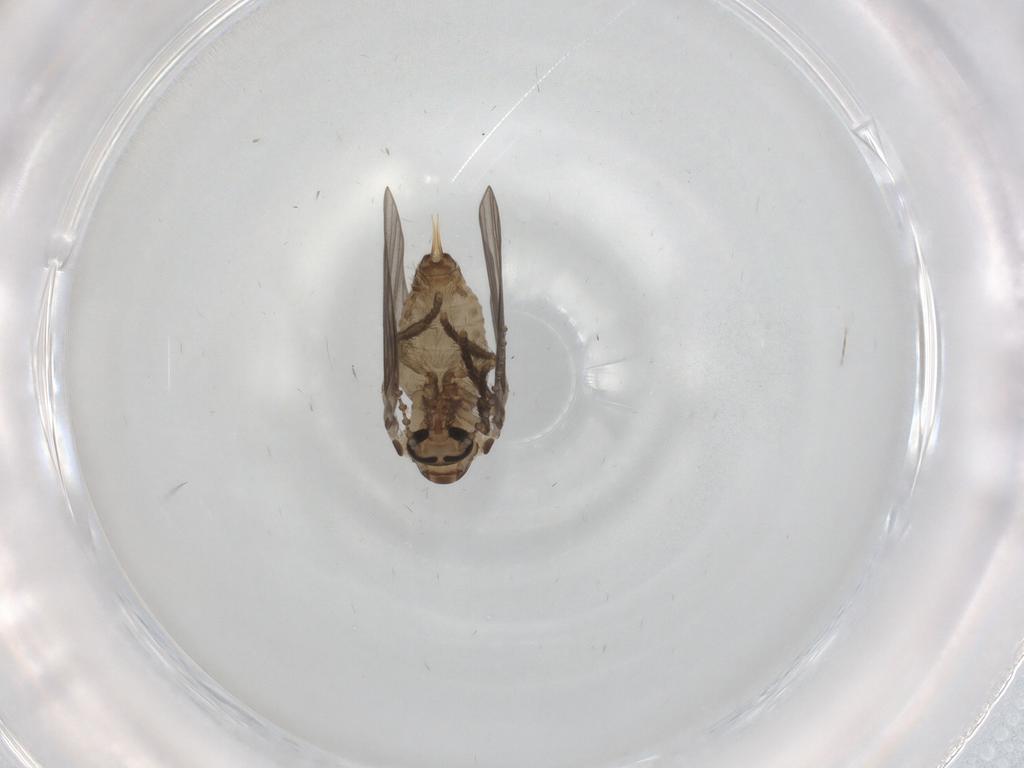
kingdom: Animalia
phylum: Arthropoda
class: Insecta
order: Diptera
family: Psychodidae
